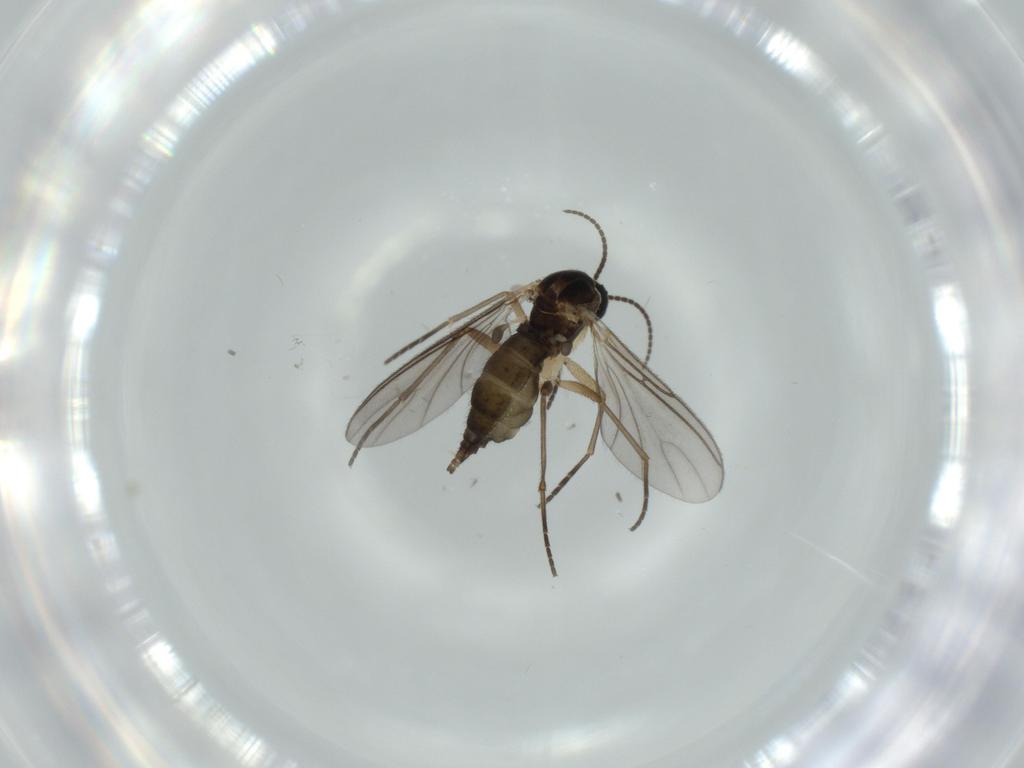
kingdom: Animalia
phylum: Arthropoda
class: Insecta
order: Diptera
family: Sciaridae
